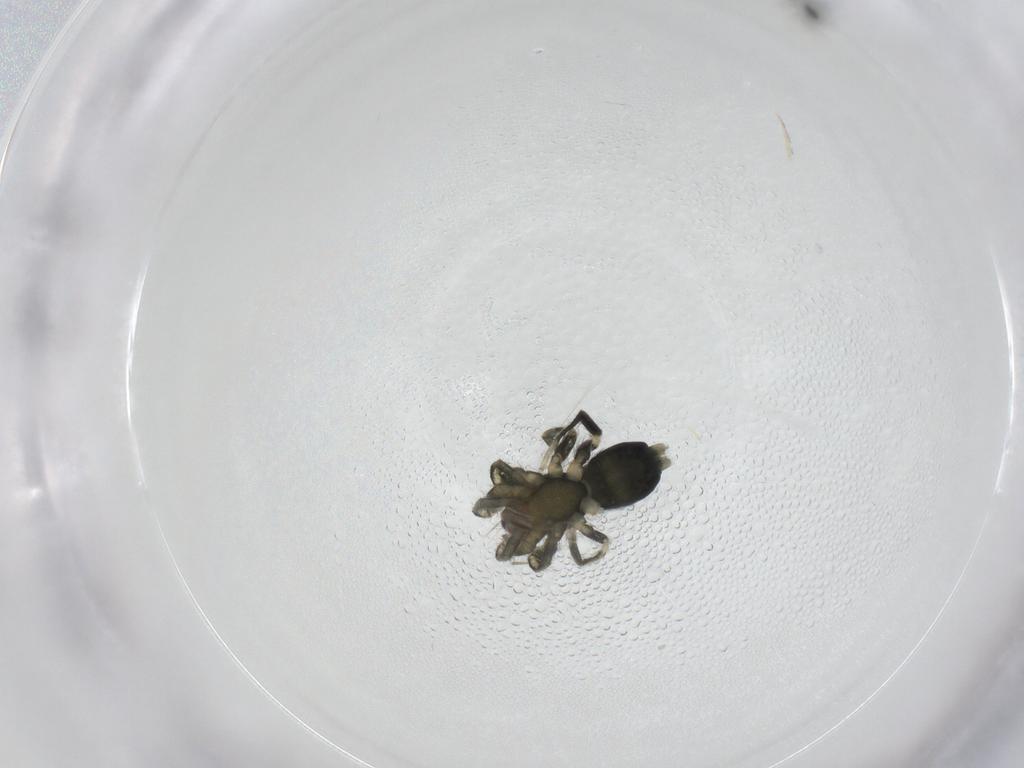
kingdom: Animalia
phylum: Arthropoda
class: Arachnida
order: Araneae
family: Gnaphosidae
